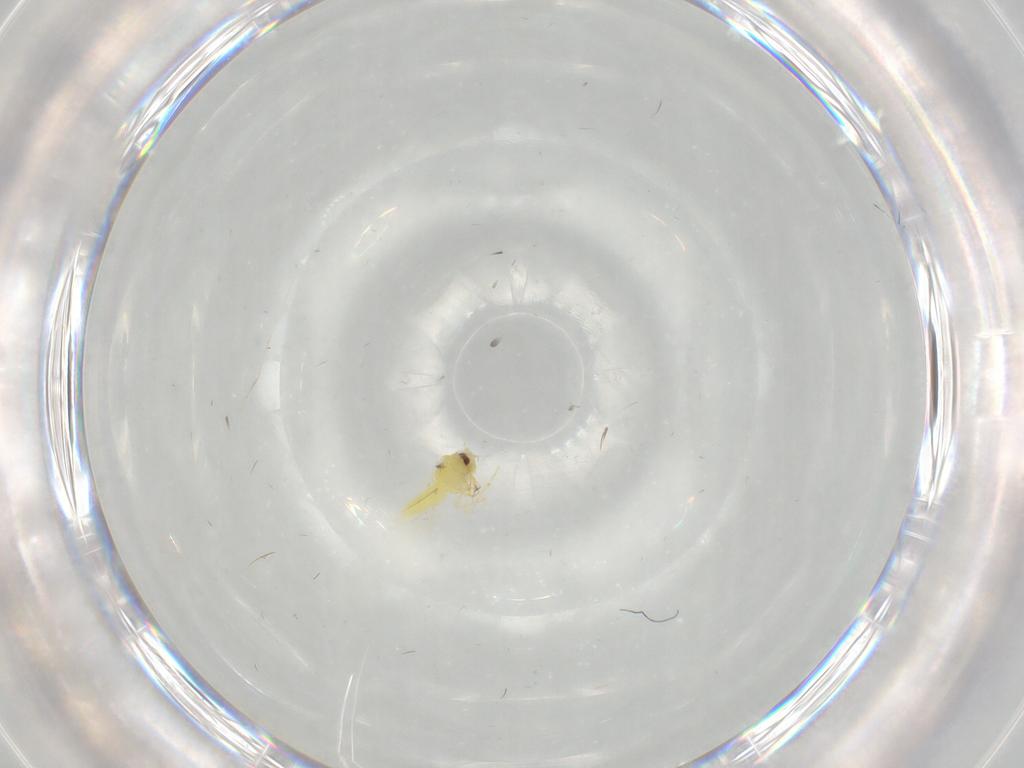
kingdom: Animalia
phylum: Arthropoda
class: Insecta
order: Hemiptera
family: Aleyrodidae
